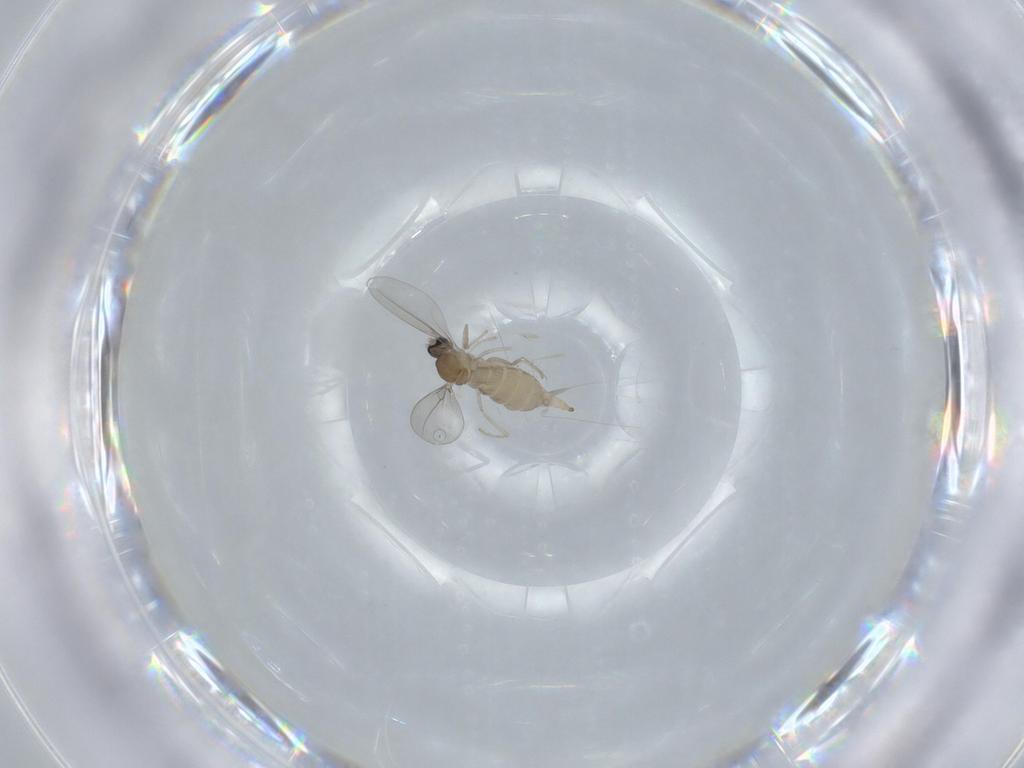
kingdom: Animalia
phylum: Arthropoda
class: Insecta
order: Diptera
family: Cecidomyiidae
